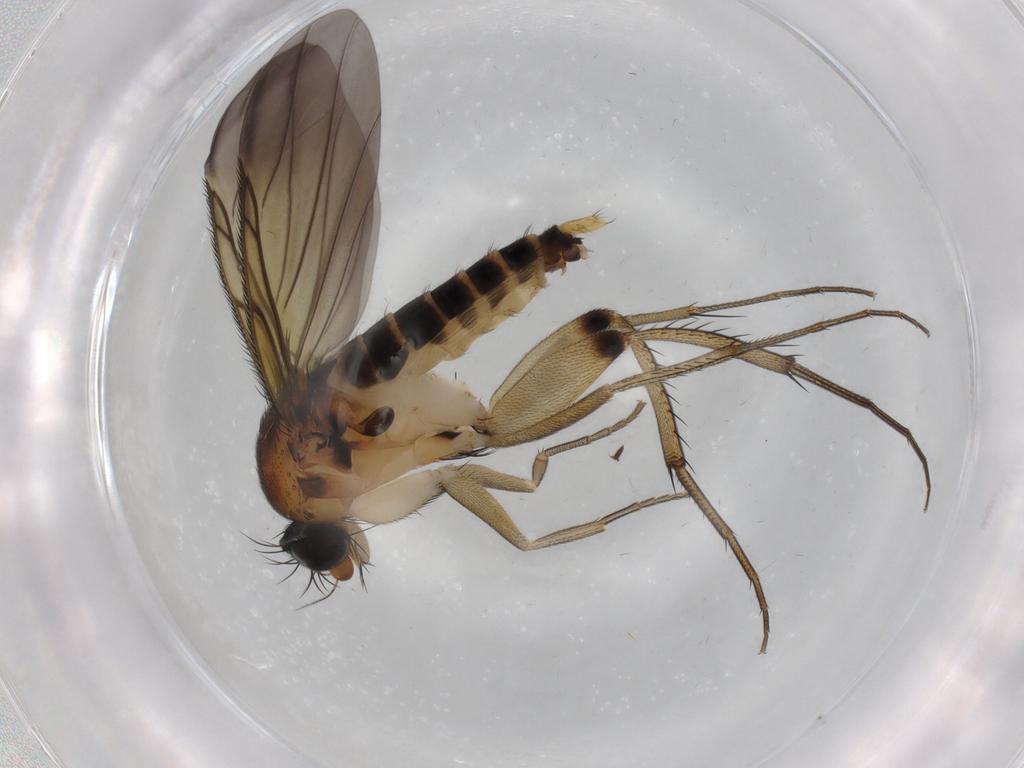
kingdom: Animalia
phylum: Arthropoda
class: Insecta
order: Diptera
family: Phoridae
